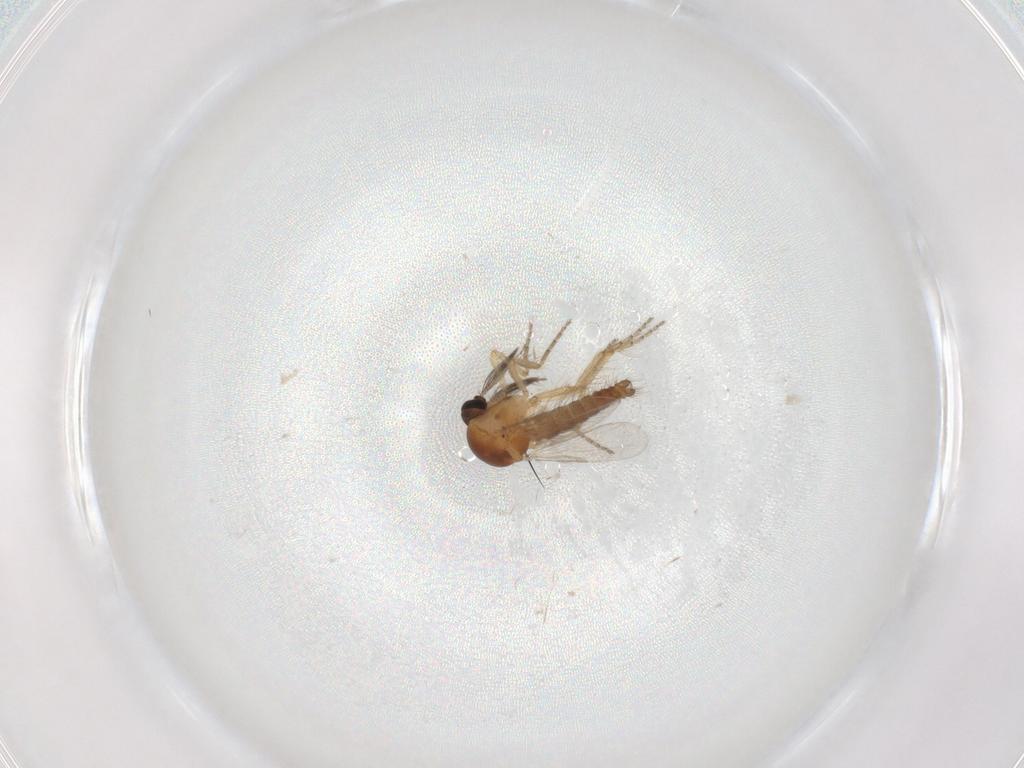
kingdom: Animalia
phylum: Arthropoda
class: Insecta
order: Diptera
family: Ceratopogonidae
